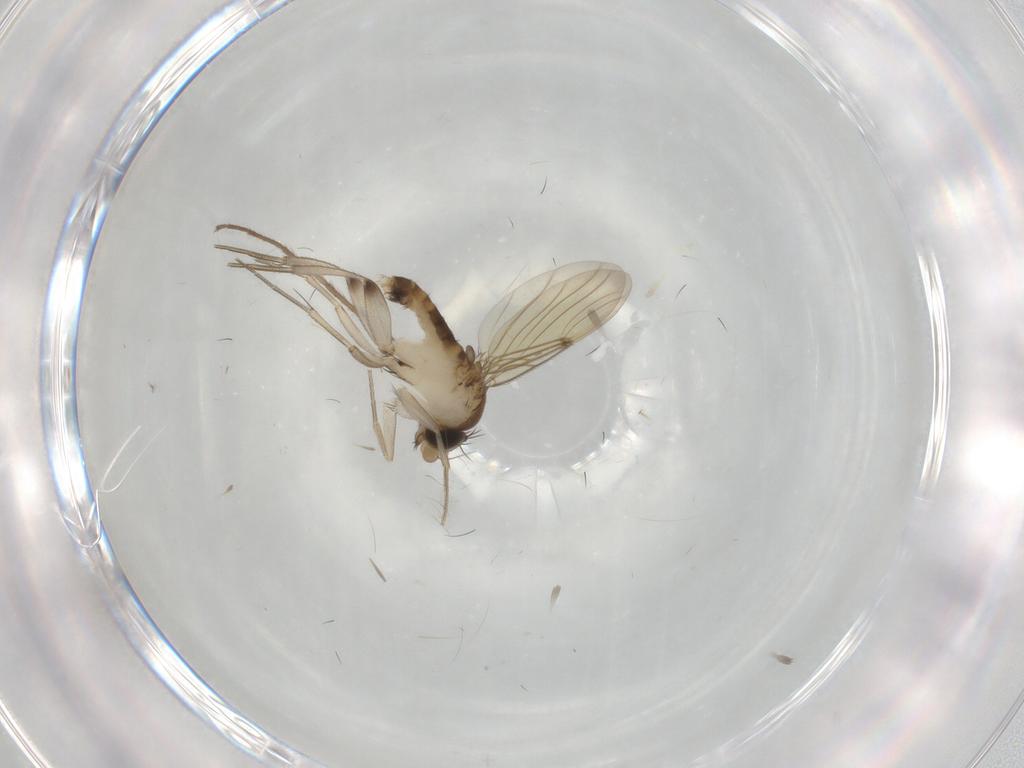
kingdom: Animalia
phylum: Arthropoda
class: Insecta
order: Diptera
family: Chironomidae
